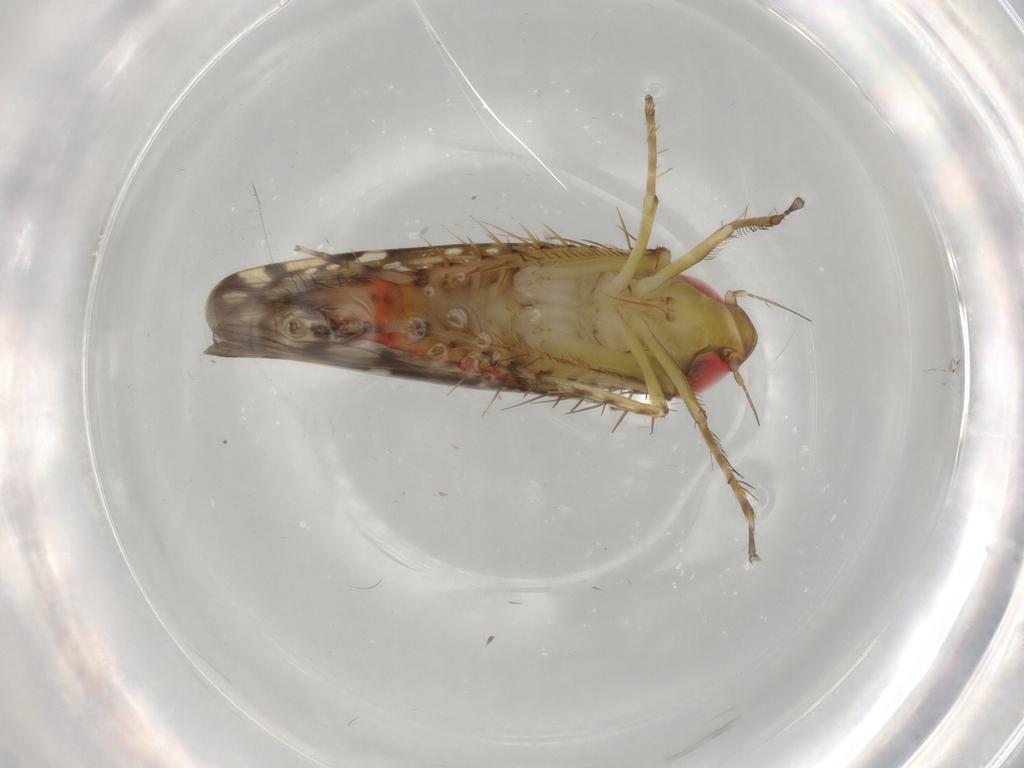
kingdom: Animalia
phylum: Arthropoda
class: Insecta
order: Hemiptera
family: Cicadellidae
